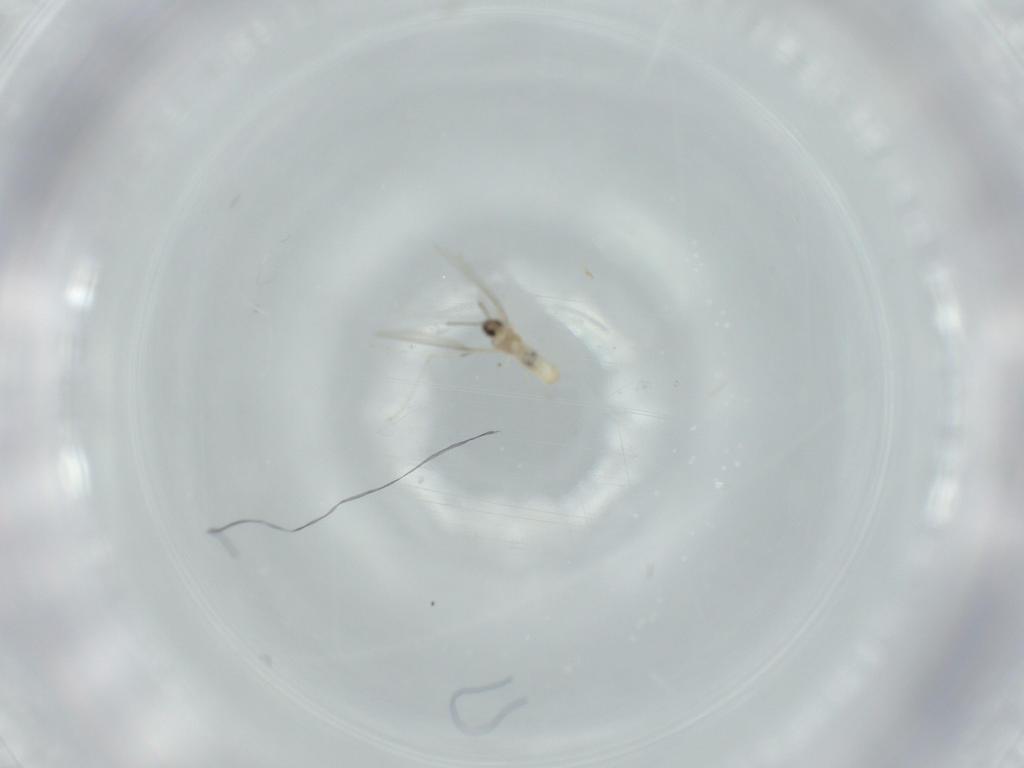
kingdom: Animalia
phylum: Arthropoda
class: Insecta
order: Diptera
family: Cecidomyiidae
